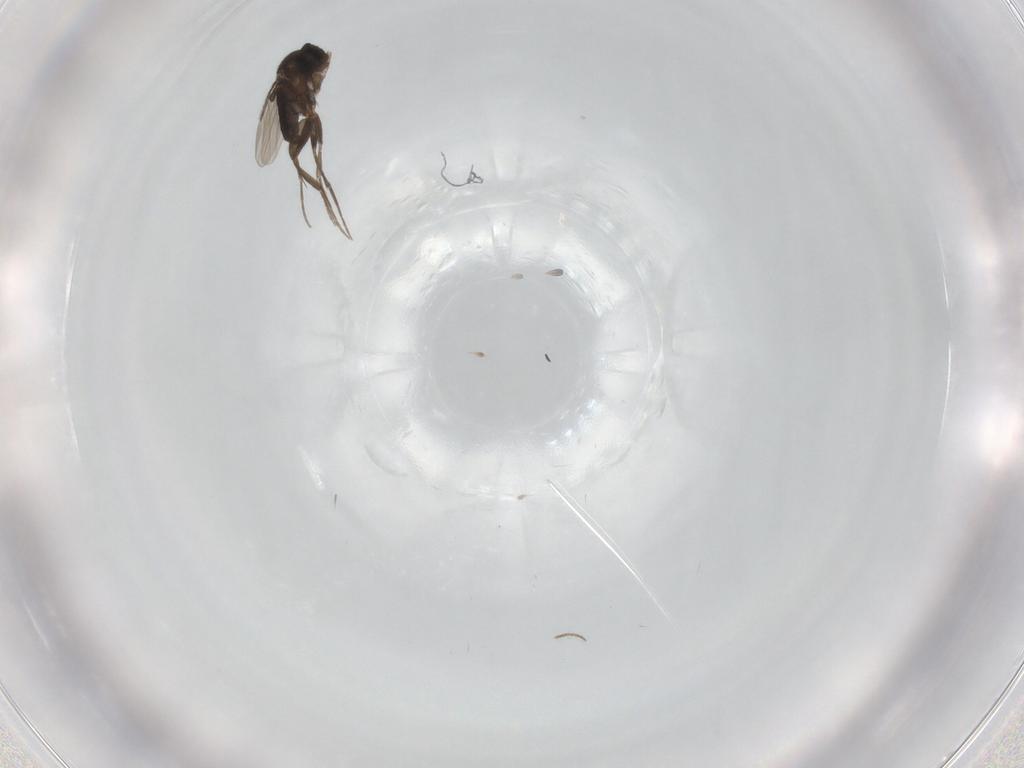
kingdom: Animalia
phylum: Arthropoda
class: Insecta
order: Diptera
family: Phoridae
